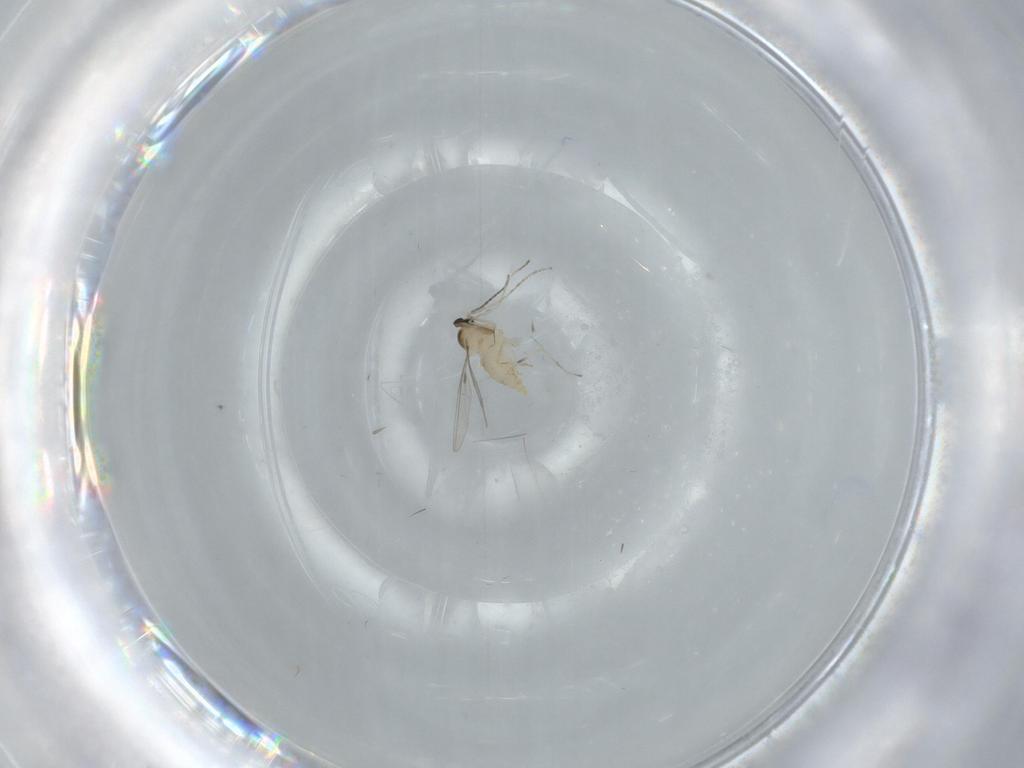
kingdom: Animalia
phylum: Arthropoda
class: Insecta
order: Diptera
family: Cecidomyiidae
